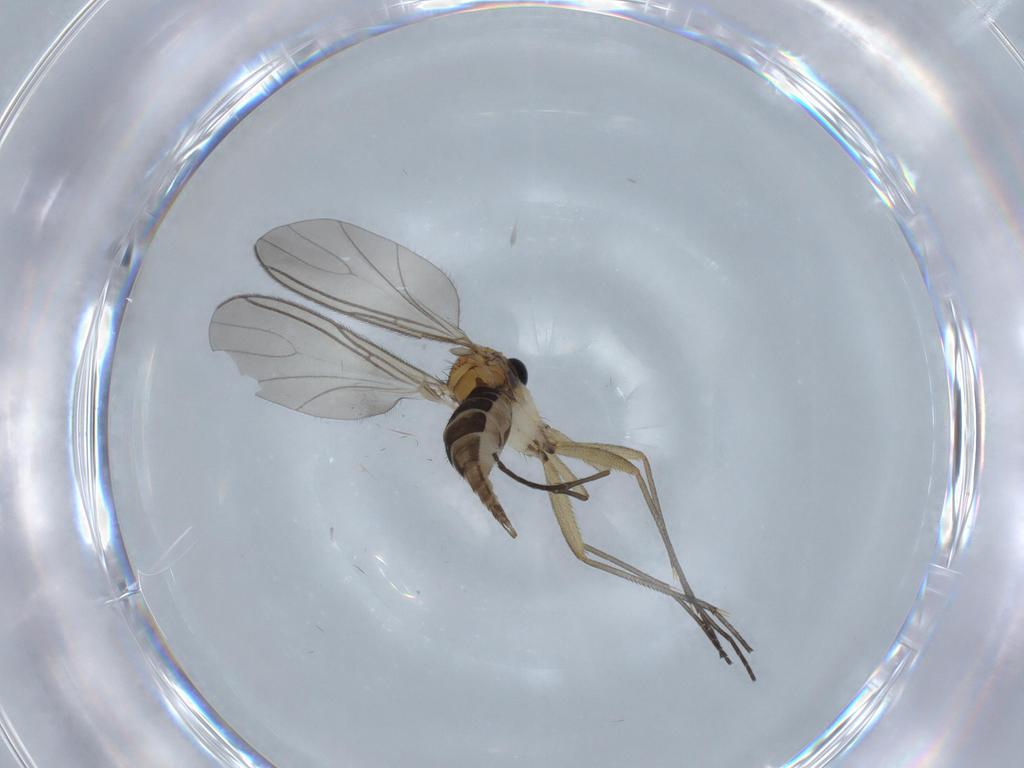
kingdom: Animalia
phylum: Arthropoda
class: Insecta
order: Diptera
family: Sciaridae
